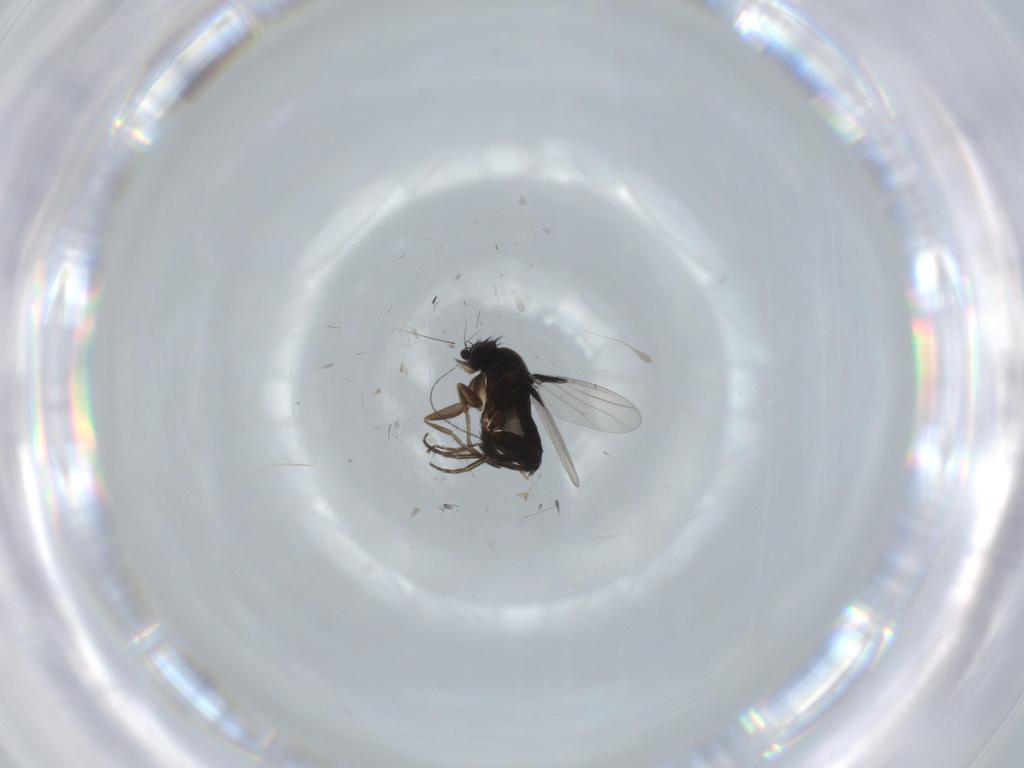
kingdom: Animalia
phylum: Arthropoda
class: Insecta
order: Diptera
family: Phoridae
